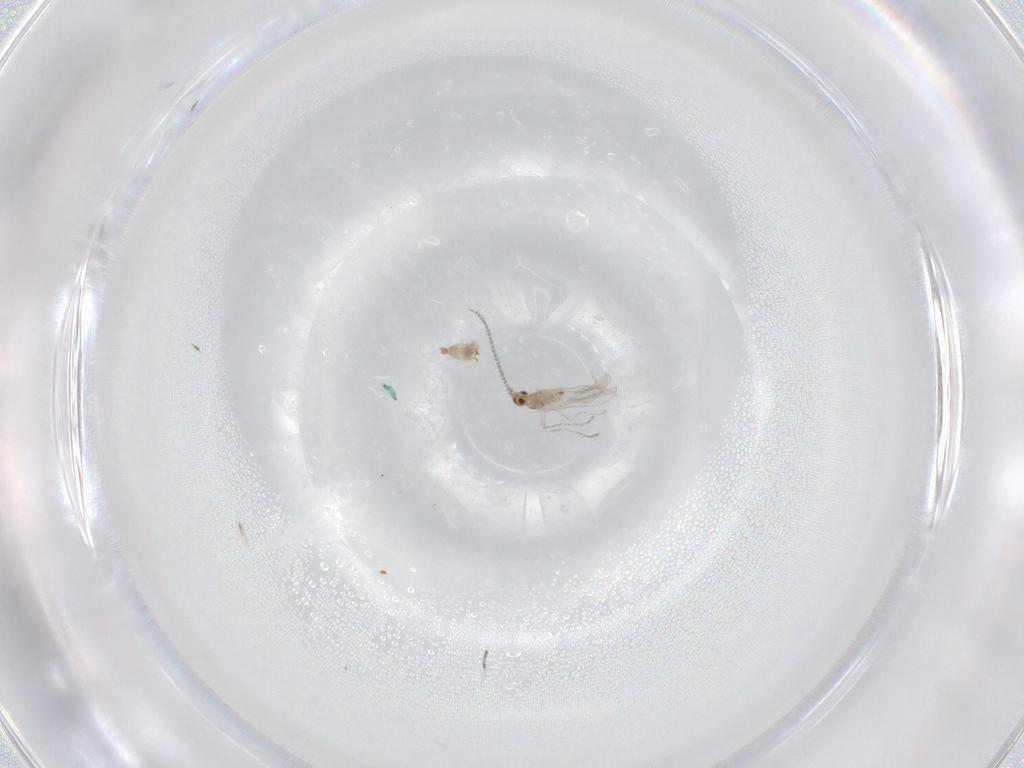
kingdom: Animalia
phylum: Arthropoda
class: Insecta
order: Diptera
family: Cecidomyiidae
